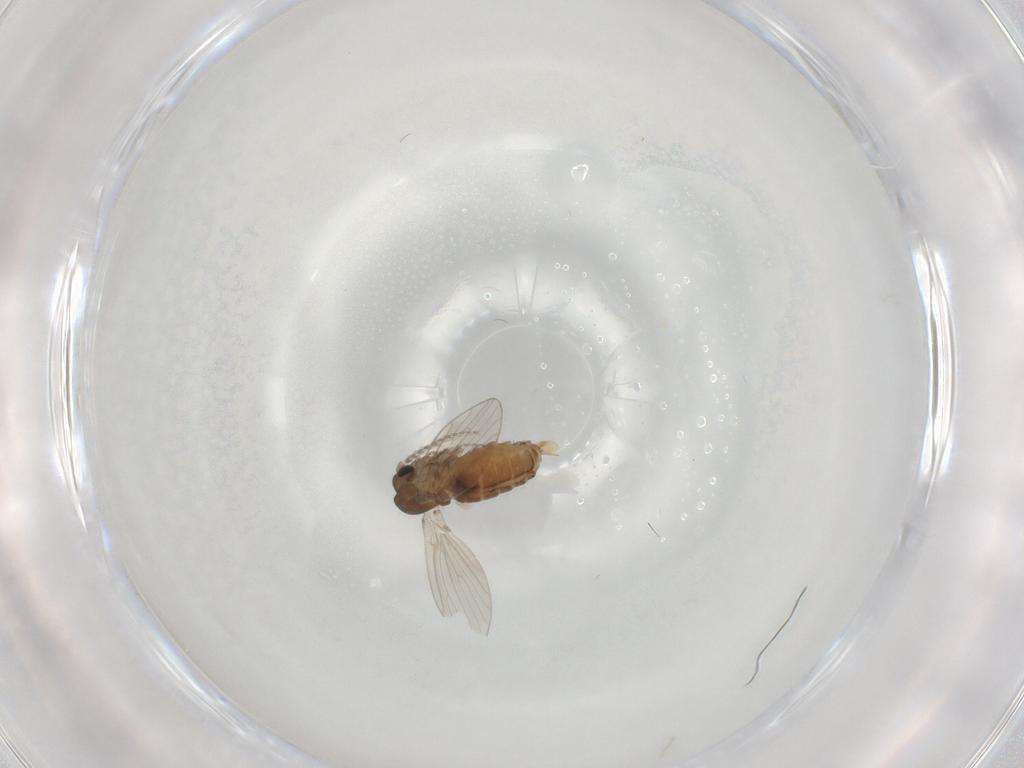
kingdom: Animalia
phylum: Arthropoda
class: Insecta
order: Diptera
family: Psychodidae
